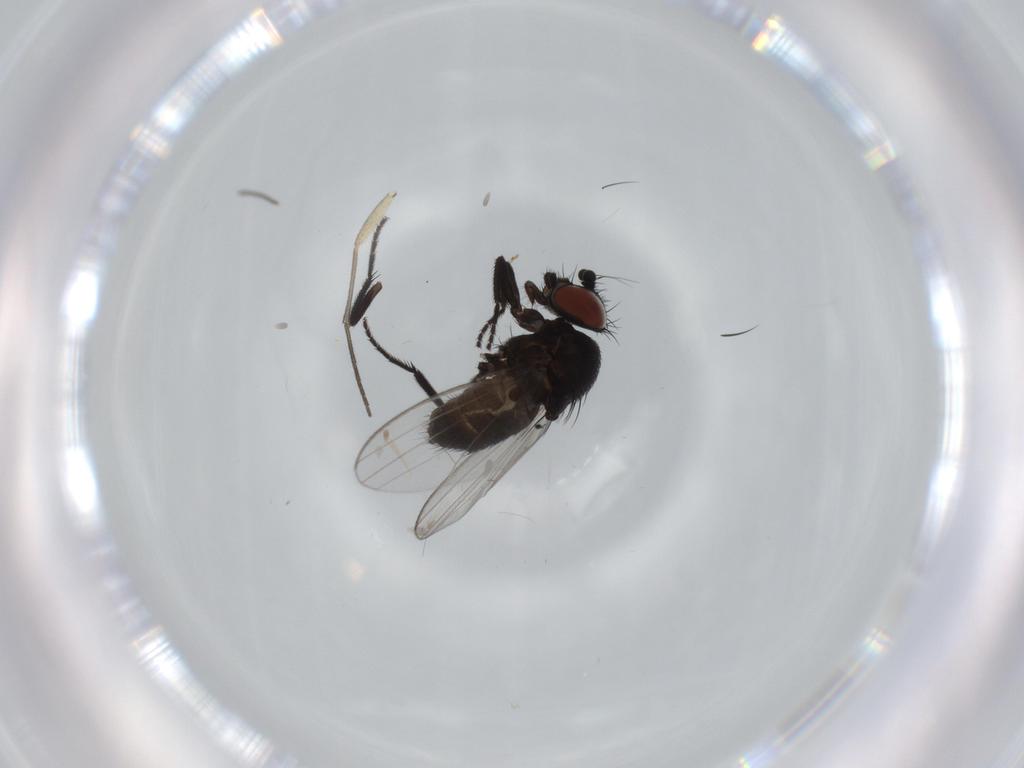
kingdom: Animalia
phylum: Arthropoda
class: Insecta
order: Diptera
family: Milichiidae
